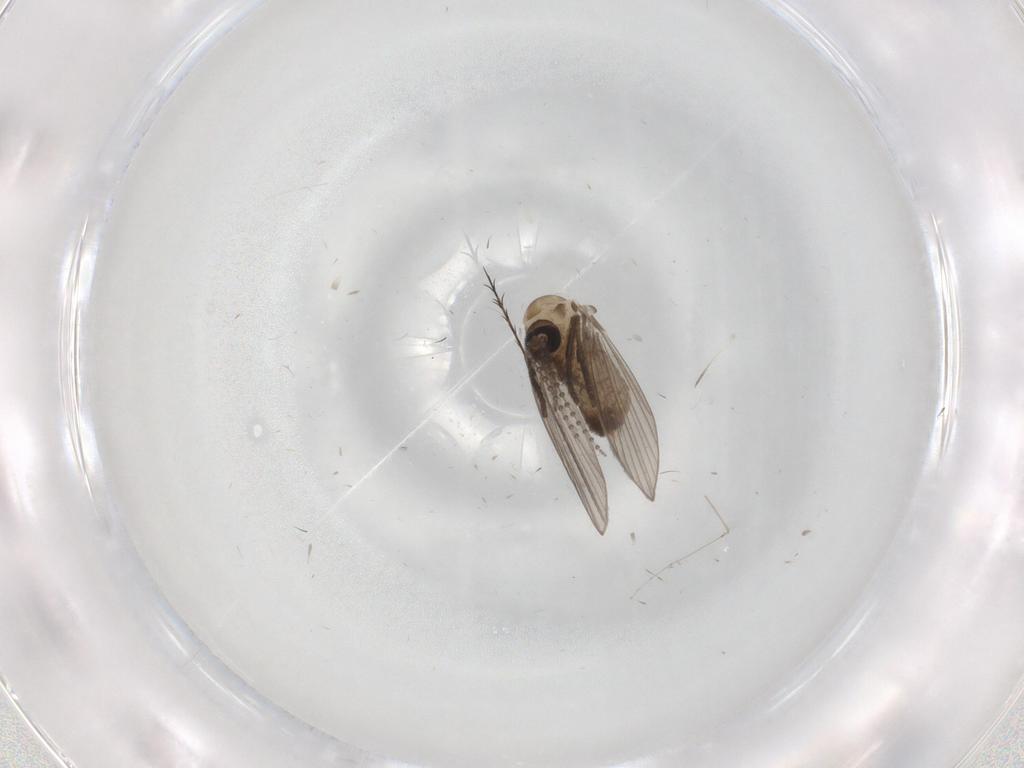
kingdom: Animalia
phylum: Arthropoda
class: Insecta
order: Diptera
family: Psychodidae
